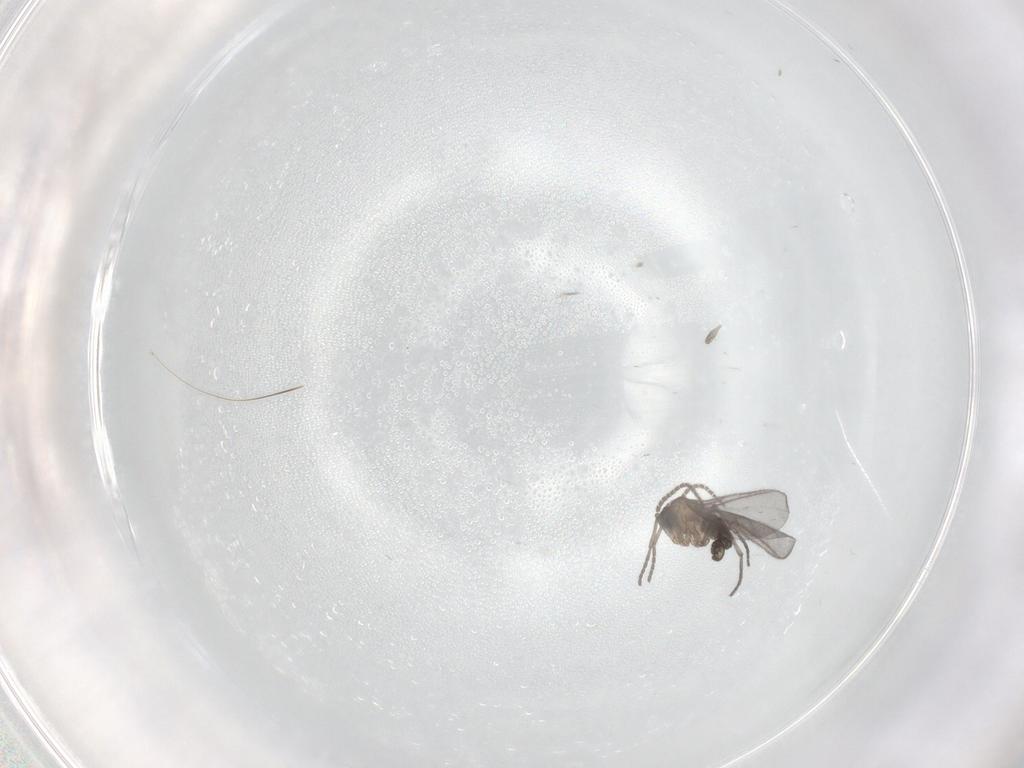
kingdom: Animalia
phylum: Arthropoda
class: Insecta
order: Diptera
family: Sciaridae
